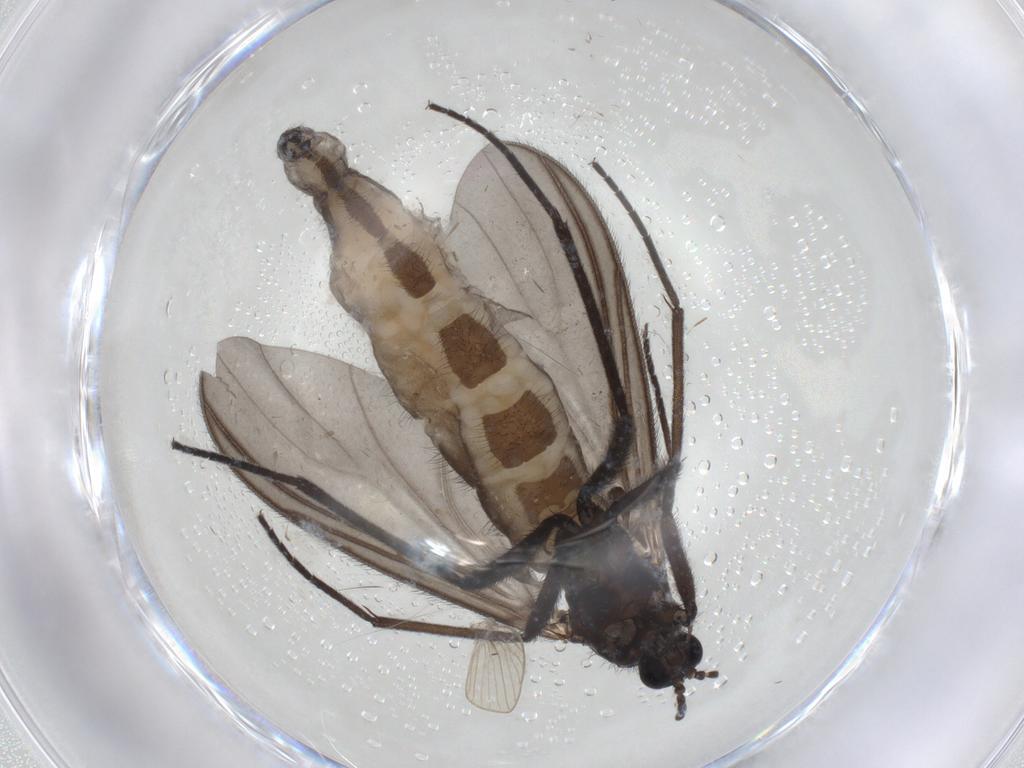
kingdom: Animalia
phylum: Arthropoda
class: Insecta
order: Diptera
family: Sciaridae
